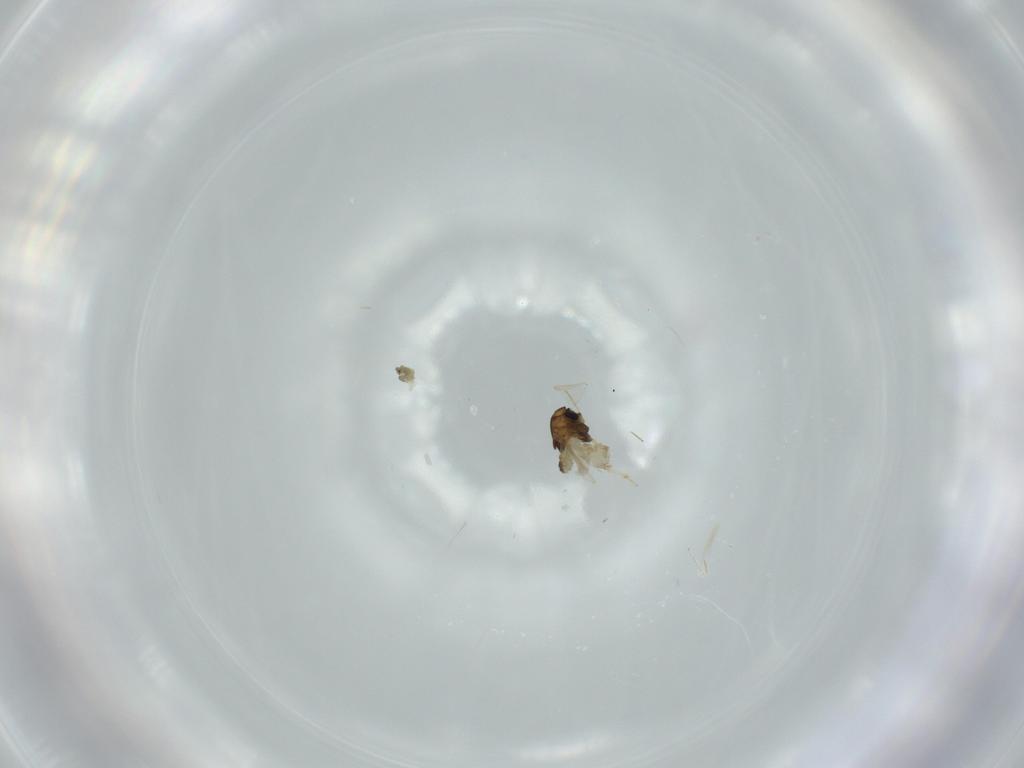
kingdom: Animalia
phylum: Arthropoda
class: Insecta
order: Diptera
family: Chironomidae
